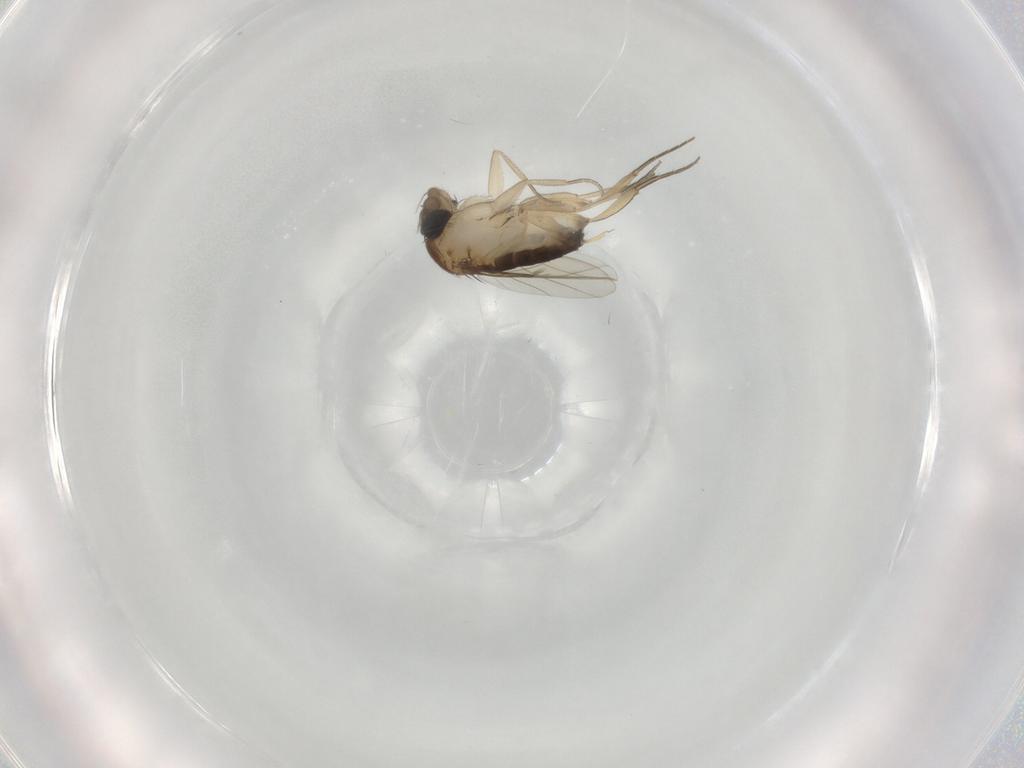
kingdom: Animalia
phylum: Arthropoda
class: Insecta
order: Diptera
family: Phoridae
